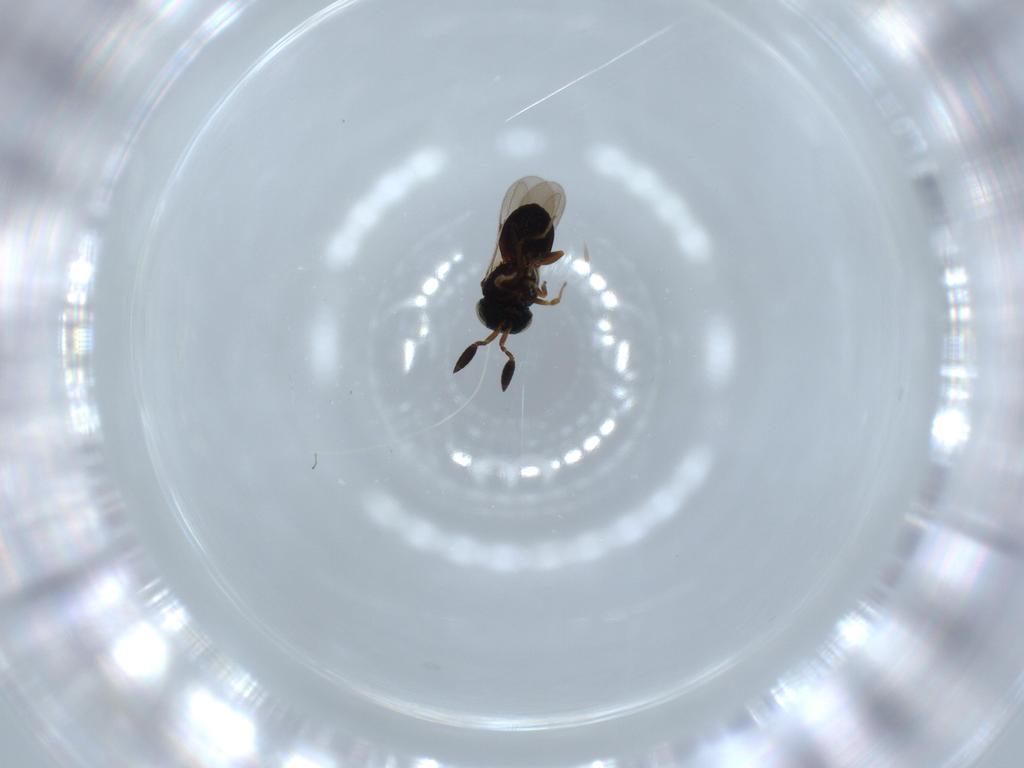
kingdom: Animalia
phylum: Arthropoda
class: Insecta
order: Hymenoptera
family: Scelionidae
